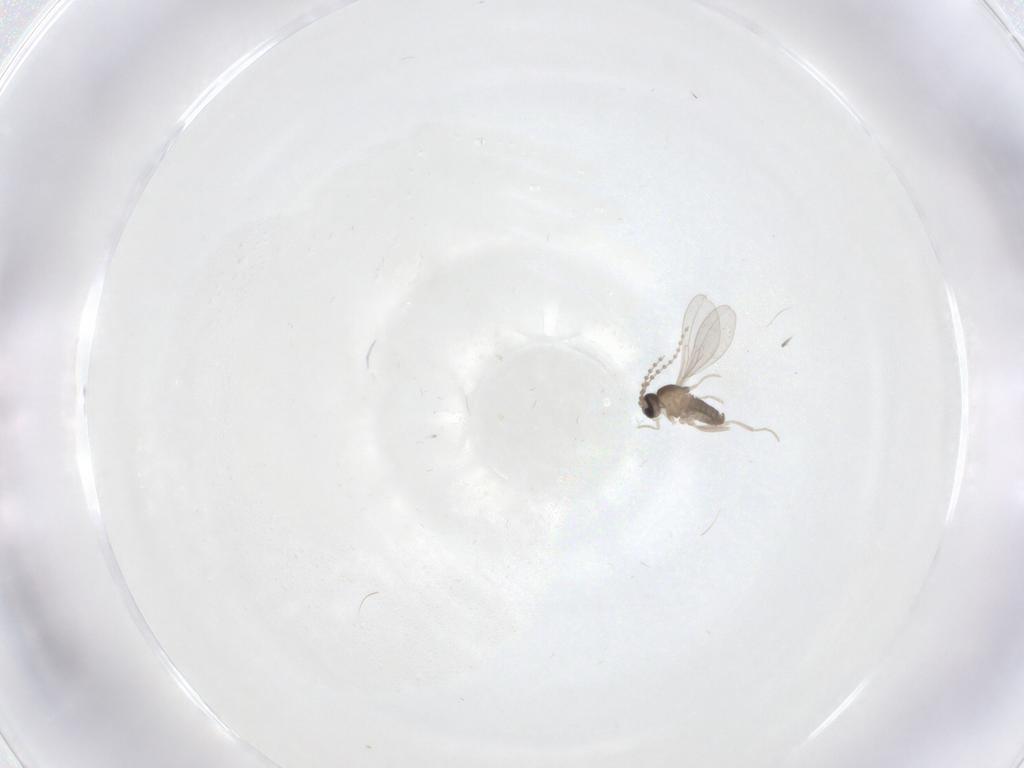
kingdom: Animalia
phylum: Arthropoda
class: Insecta
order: Diptera
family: Cecidomyiidae
